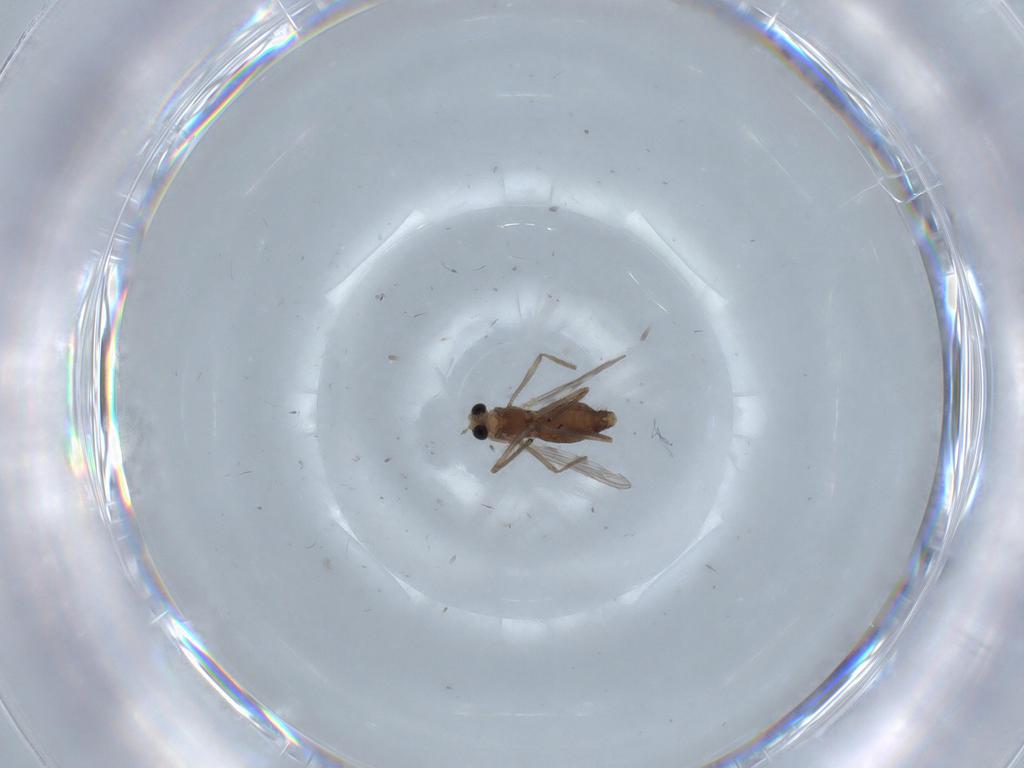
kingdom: Animalia
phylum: Arthropoda
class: Insecta
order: Diptera
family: Chironomidae
